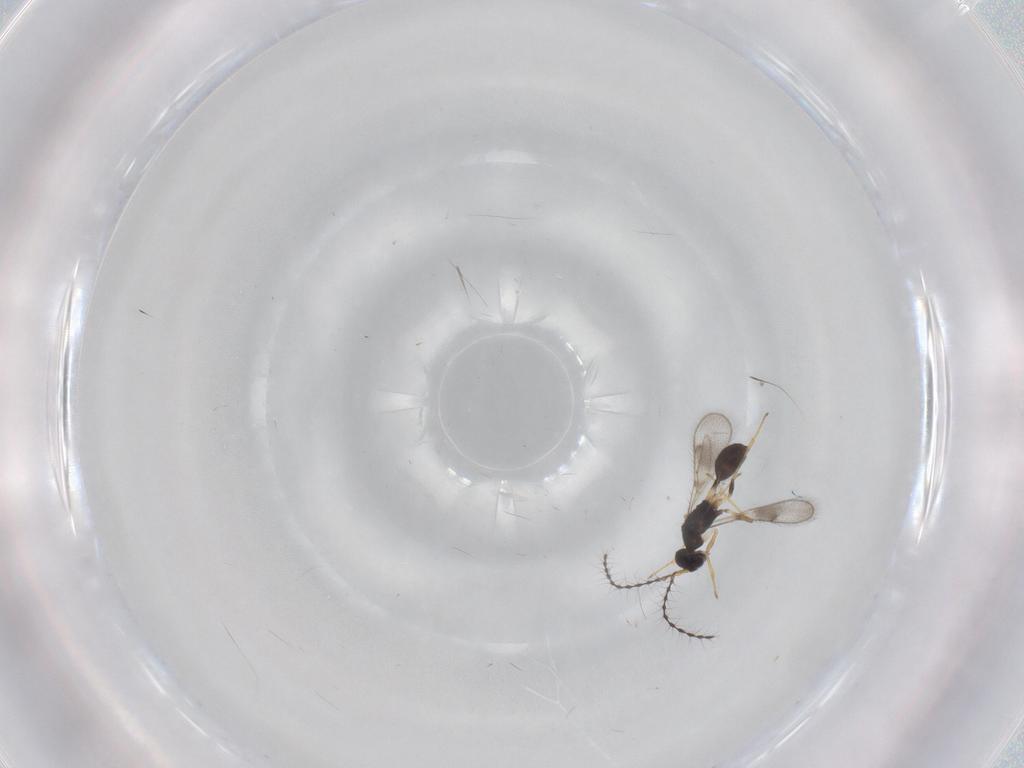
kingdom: Animalia
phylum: Arthropoda
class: Insecta
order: Hymenoptera
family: Diparidae
